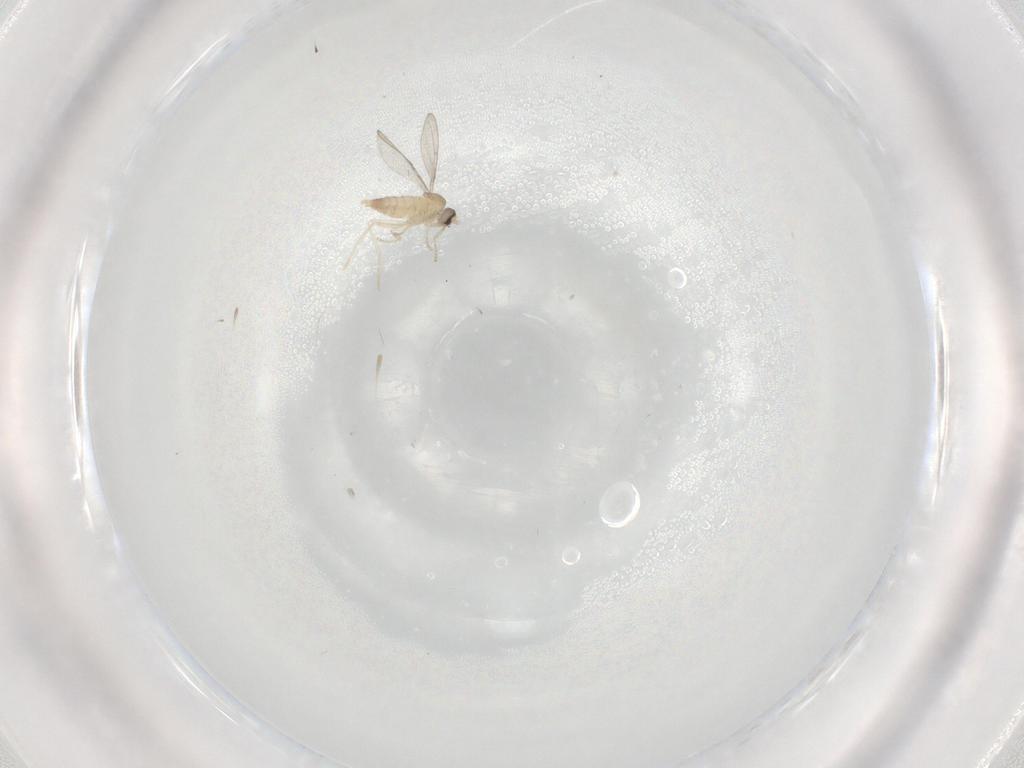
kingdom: Animalia
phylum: Arthropoda
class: Insecta
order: Diptera
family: Cecidomyiidae
